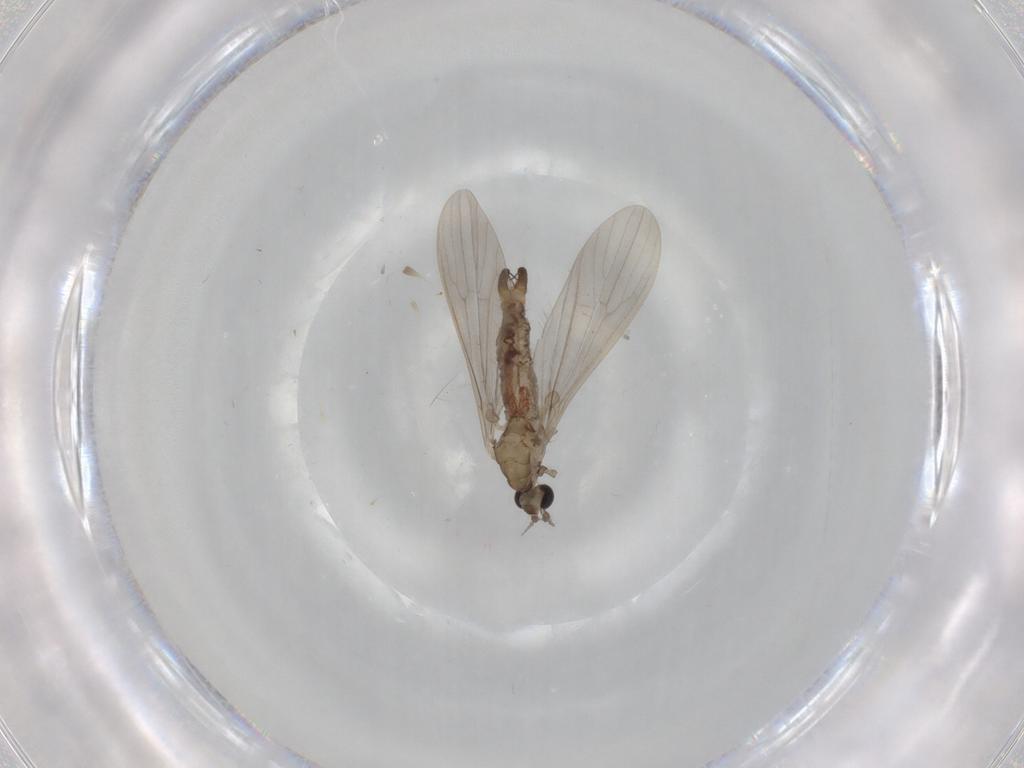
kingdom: Animalia
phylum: Arthropoda
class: Insecta
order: Diptera
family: Limoniidae
